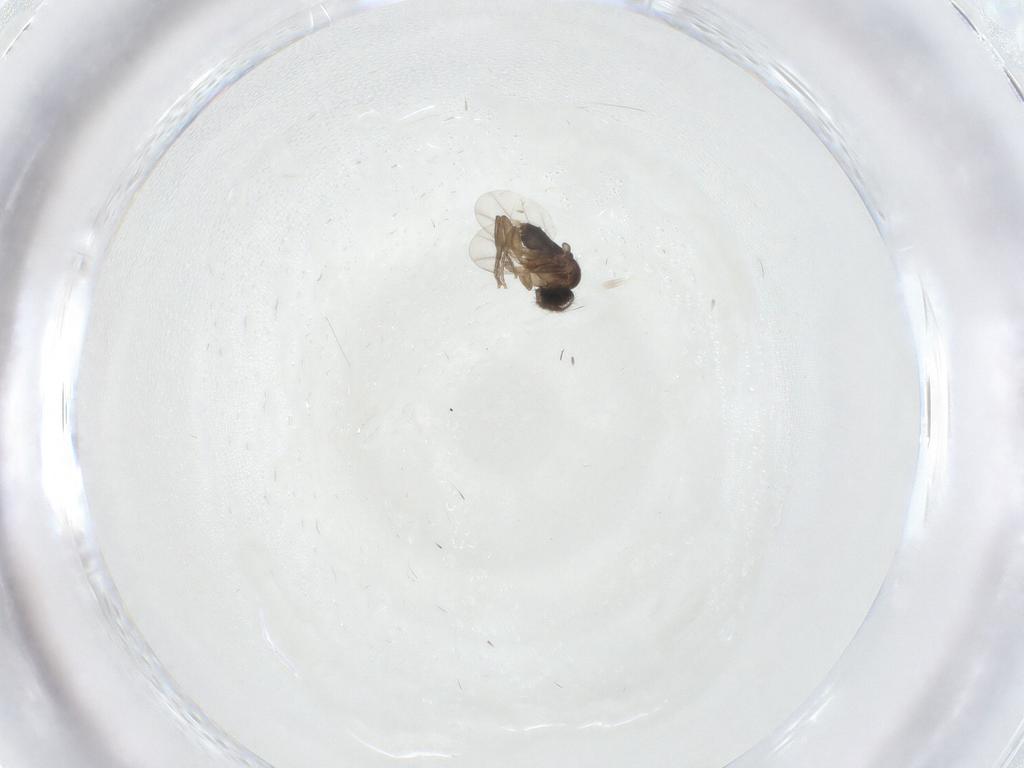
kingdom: Animalia
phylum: Arthropoda
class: Insecta
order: Diptera
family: Phoridae
